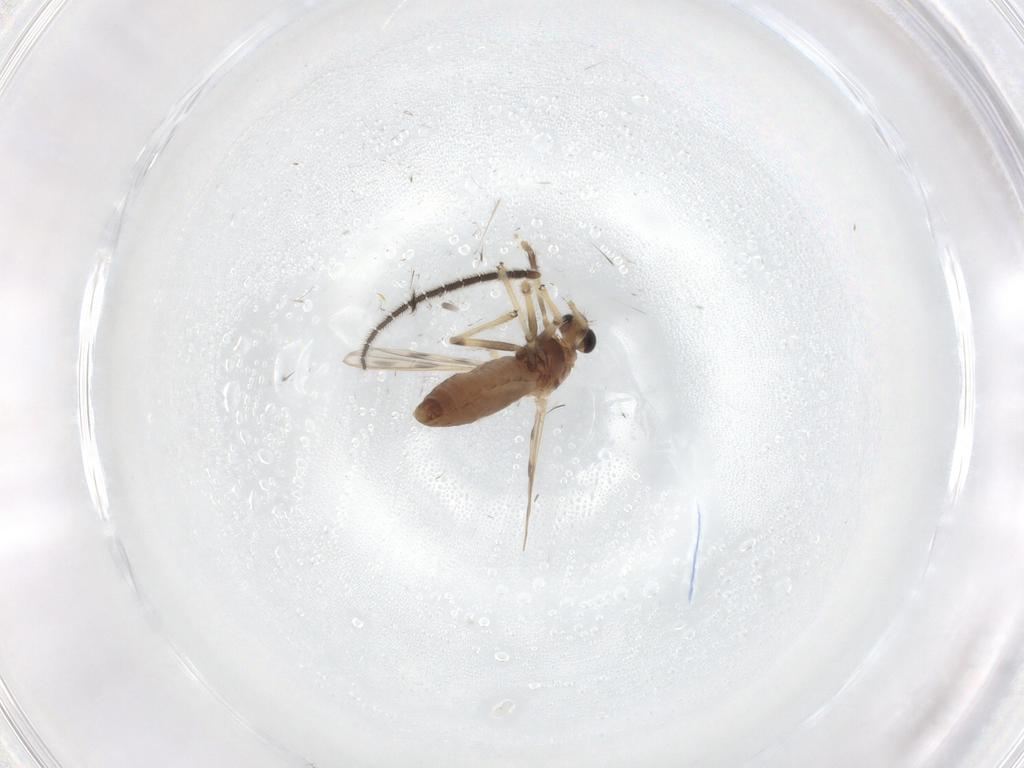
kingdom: Animalia
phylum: Arthropoda
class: Insecta
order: Diptera
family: Chironomidae
